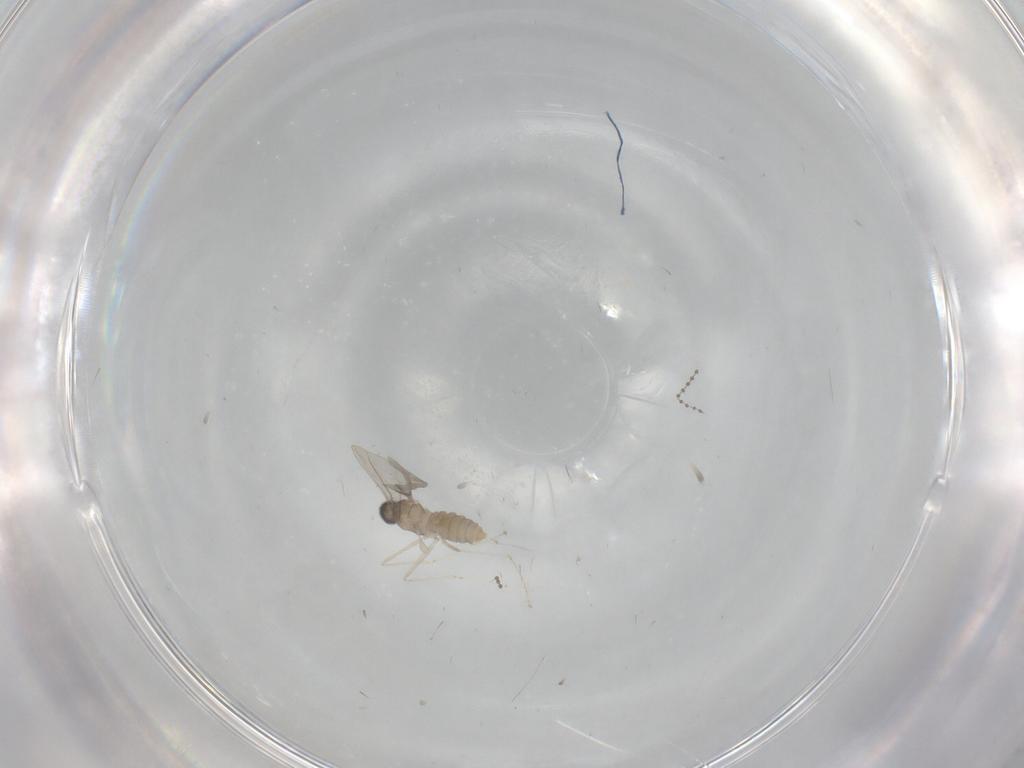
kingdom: Animalia
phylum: Arthropoda
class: Insecta
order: Diptera
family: Cecidomyiidae
